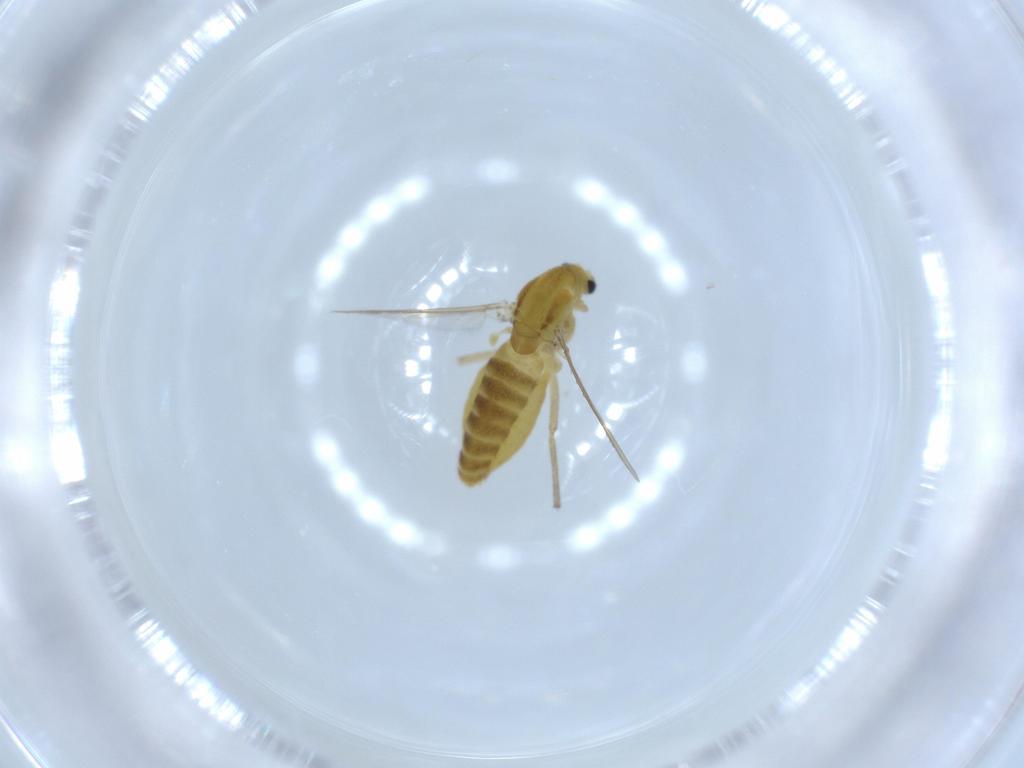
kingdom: Animalia
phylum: Arthropoda
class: Insecta
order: Diptera
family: Chironomidae
